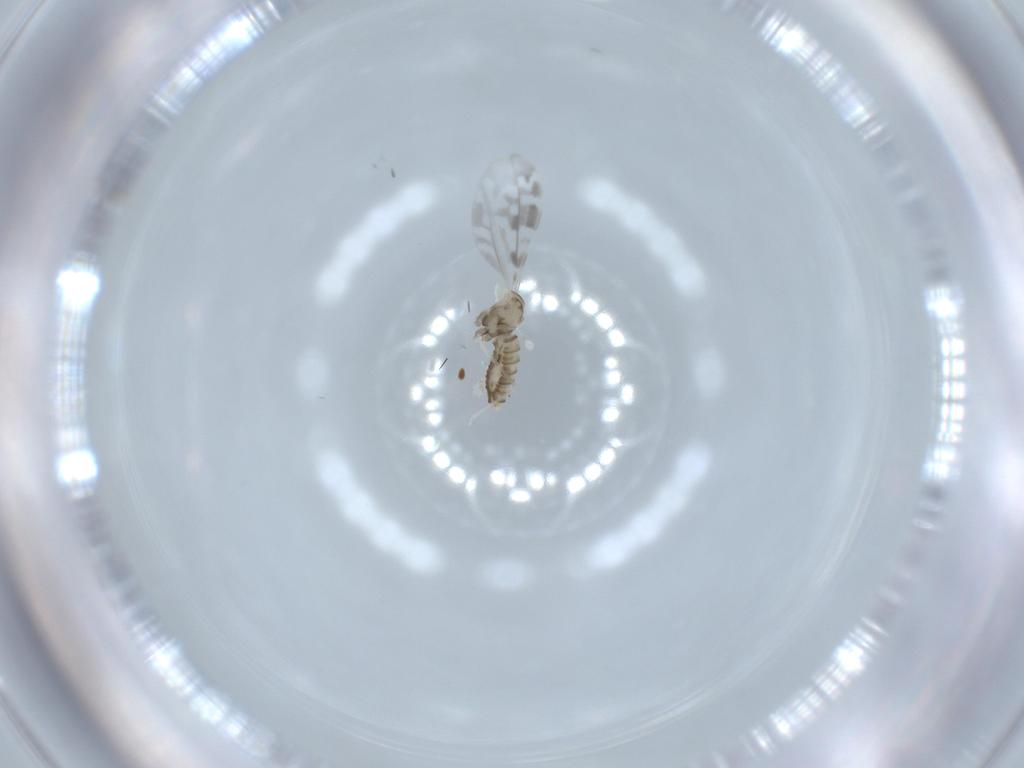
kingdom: Animalia
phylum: Arthropoda
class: Insecta
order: Diptera
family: Cecidomyiidae
